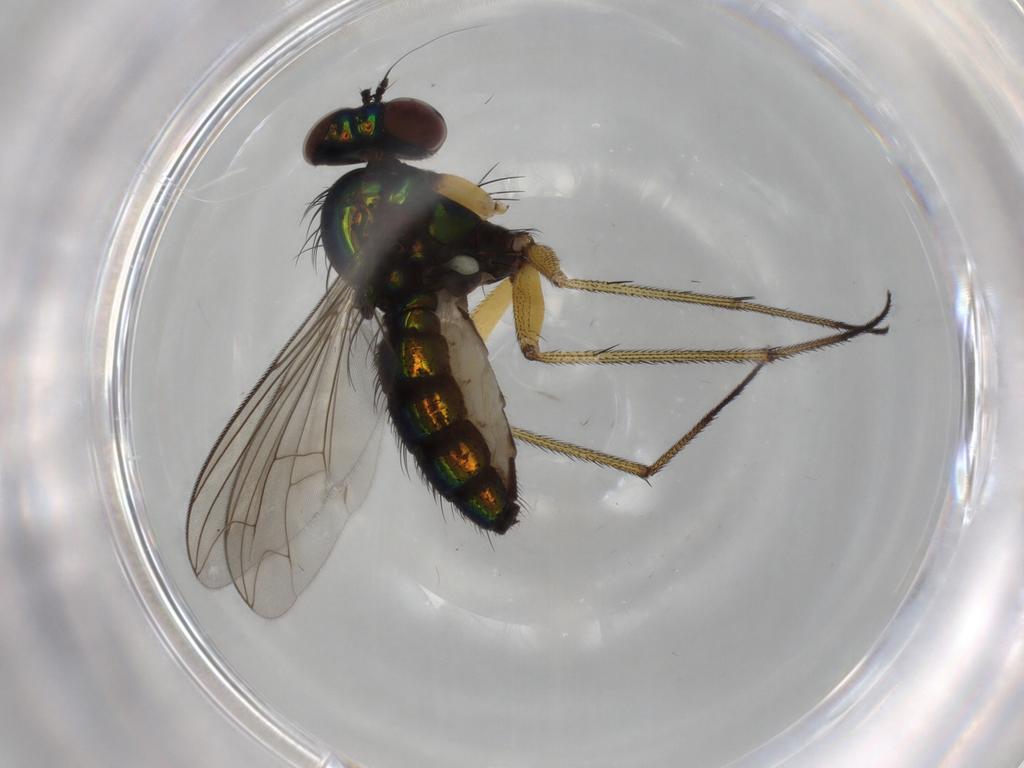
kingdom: Animalia
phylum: Arthropoda
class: Insecta
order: Diptera
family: Dolichopodidae
